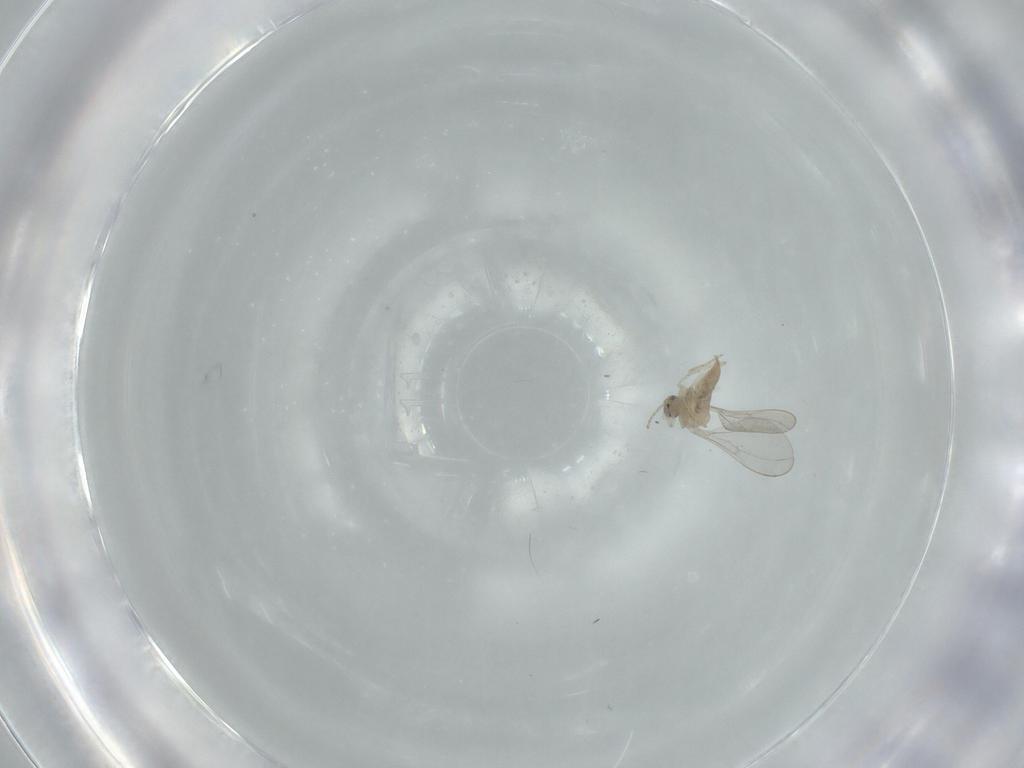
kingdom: Animalia
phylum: Arthropoda
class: Insecta
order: Diptera
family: Cecidomyiidae
